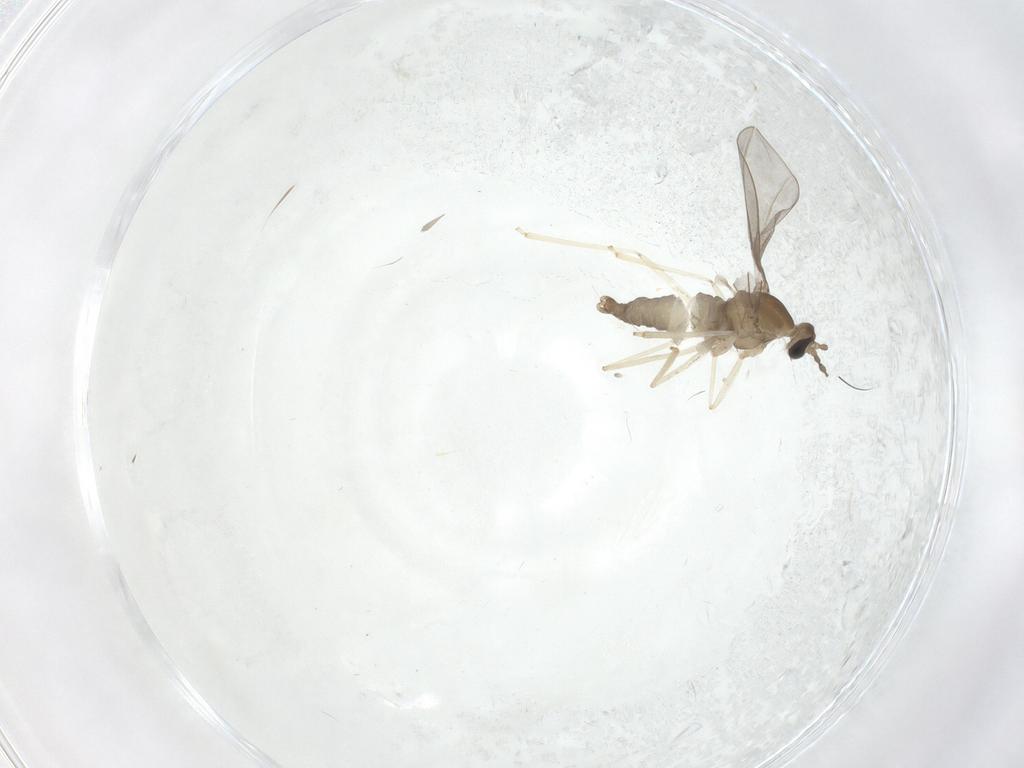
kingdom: Animalia
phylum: Arthropoda
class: Insecta
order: Diptera
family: Cecidomyiidae
